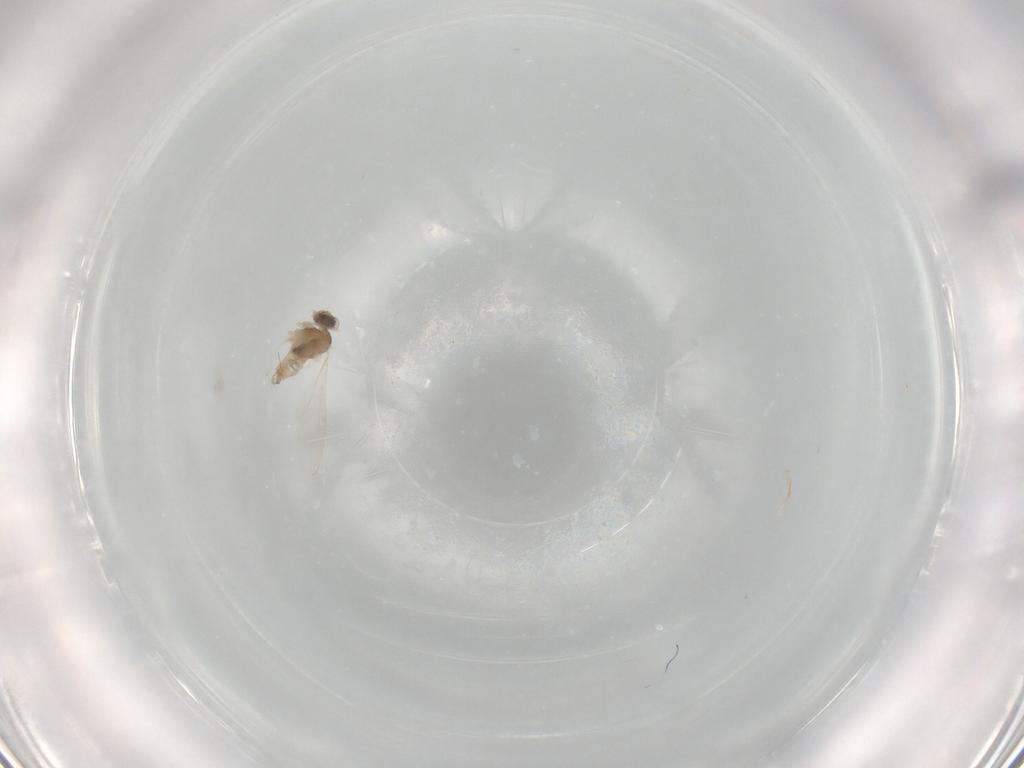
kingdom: Animalia
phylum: Arthropoda
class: Insecta
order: Diptera
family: Cecidomyiidae
